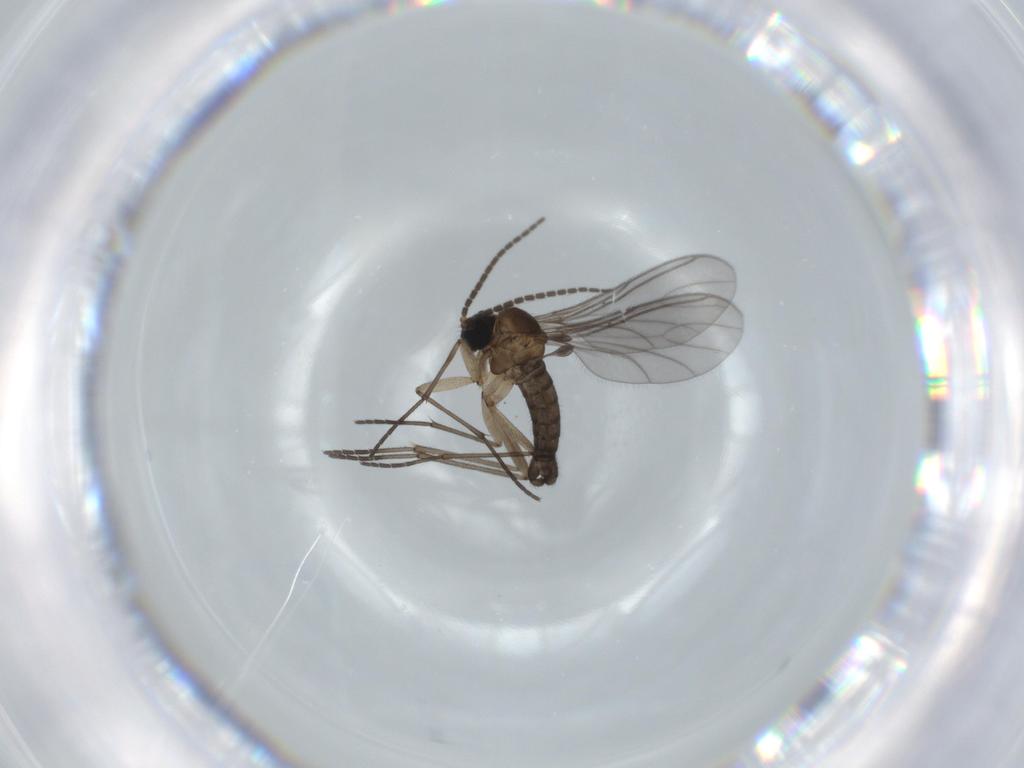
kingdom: Animalia
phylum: Arthropoda
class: Insecta
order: Diptera
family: Sciaridae
